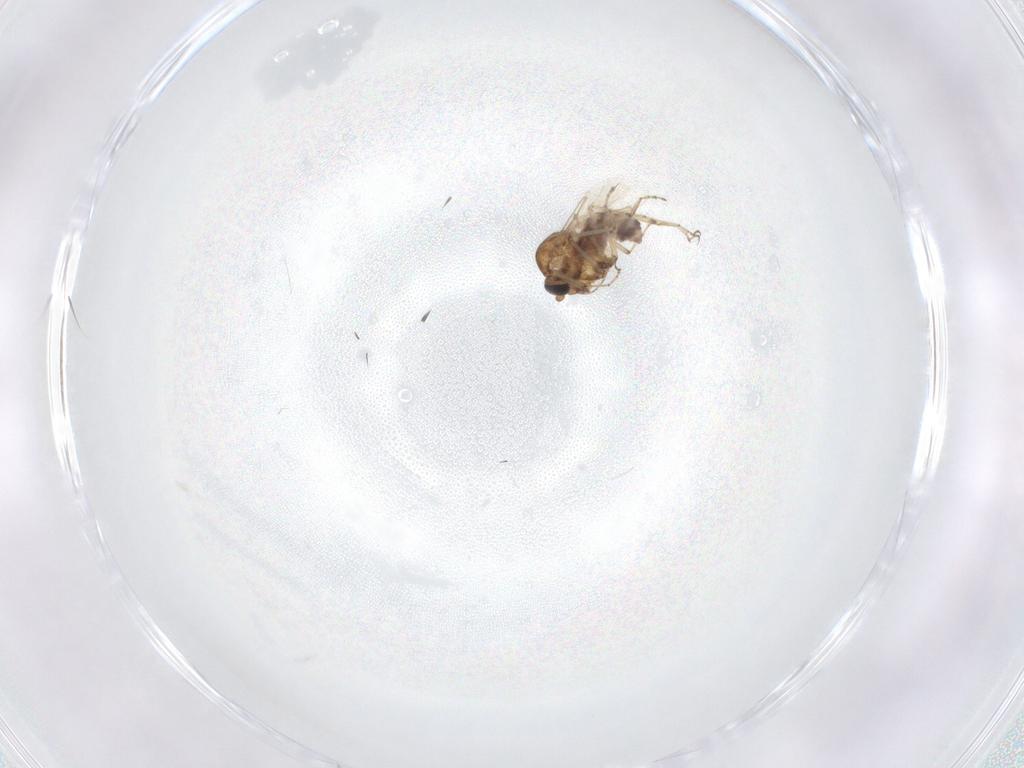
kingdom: Animalia
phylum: Arthropoda
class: Insecta
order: Diptera
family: Ceratopogonidae
